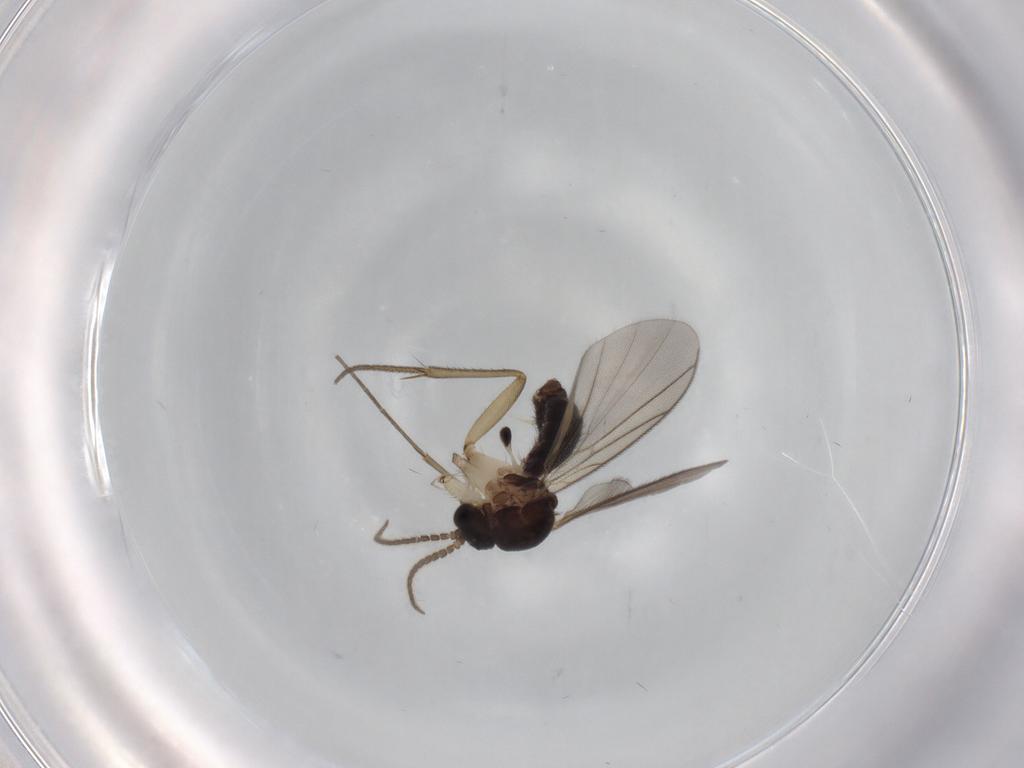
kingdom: Animalia
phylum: Arthropoda
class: Insecta
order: Diptera
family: Mycetophilidae
